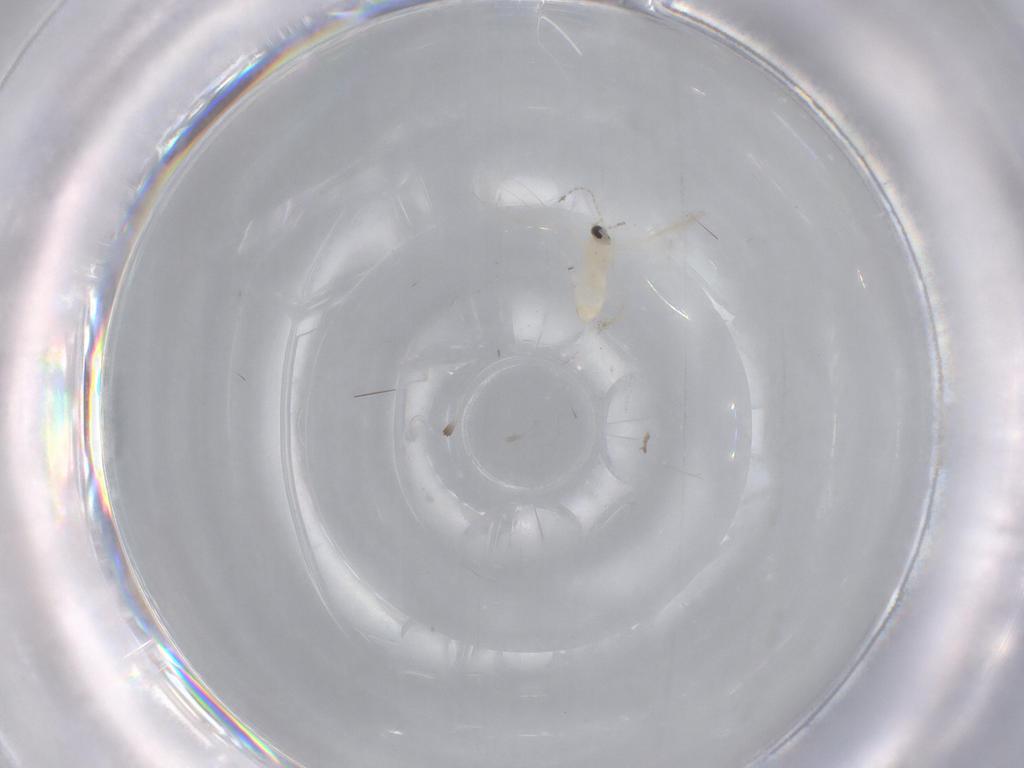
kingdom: Animalia
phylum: Arthropoda
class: Insecta
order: Diptera
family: Cecidomyiidae
